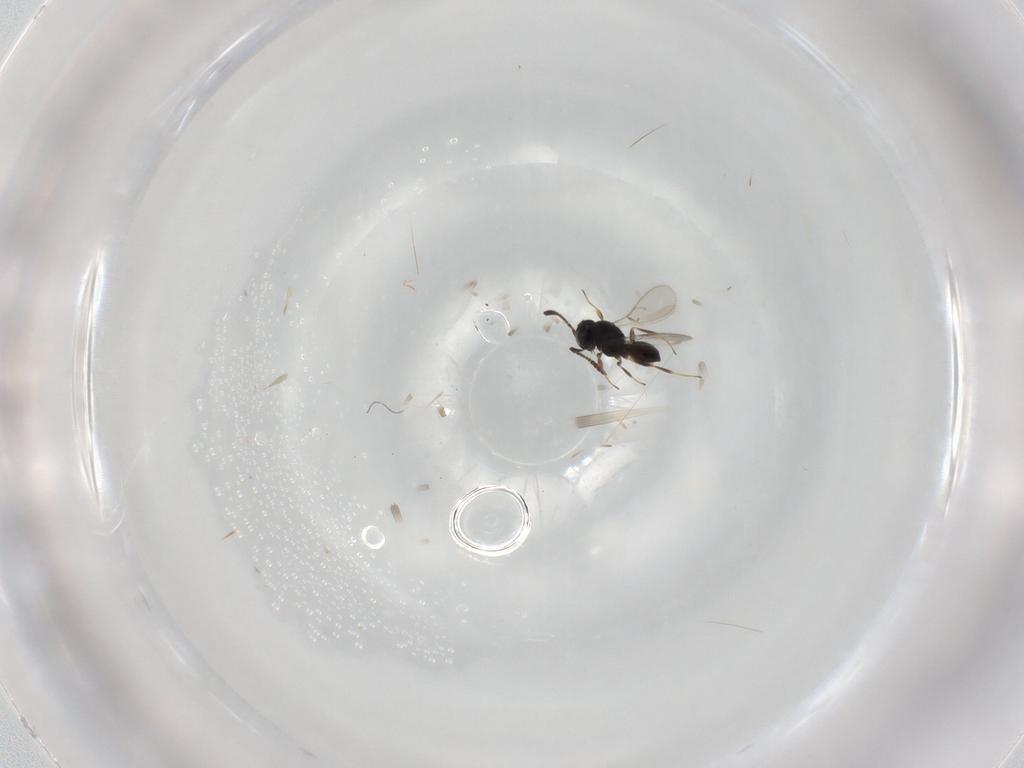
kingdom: Animalia
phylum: Arthropoda
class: Insecta
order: Hymenoptera
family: Scelionidae
